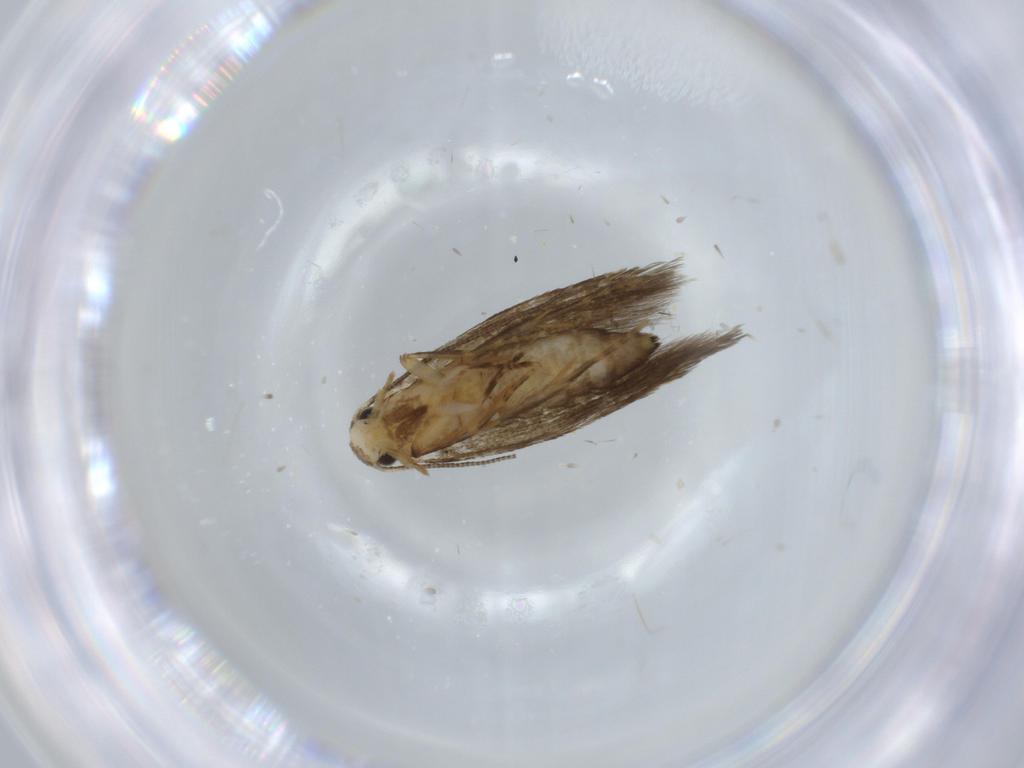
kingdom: Animalia
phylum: Arthropoda
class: Insecta
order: Lepidoptera
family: Tineidae
